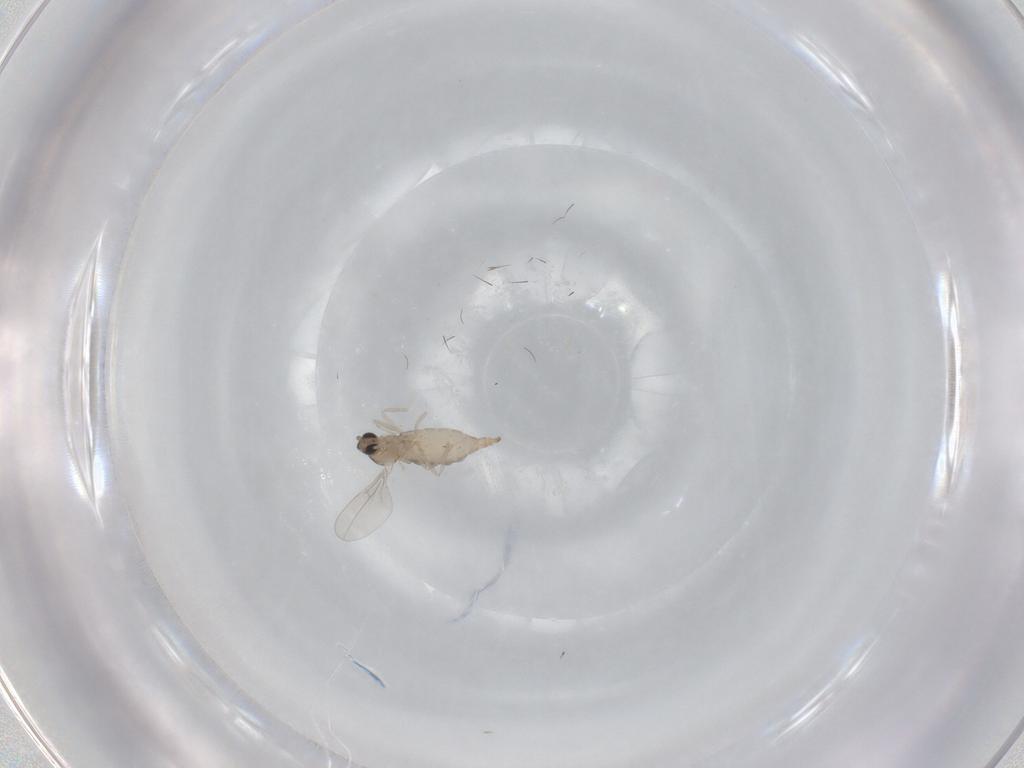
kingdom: Animalia
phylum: Arthropoda
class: Insecta
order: Diptera
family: Cecidomyiidae
